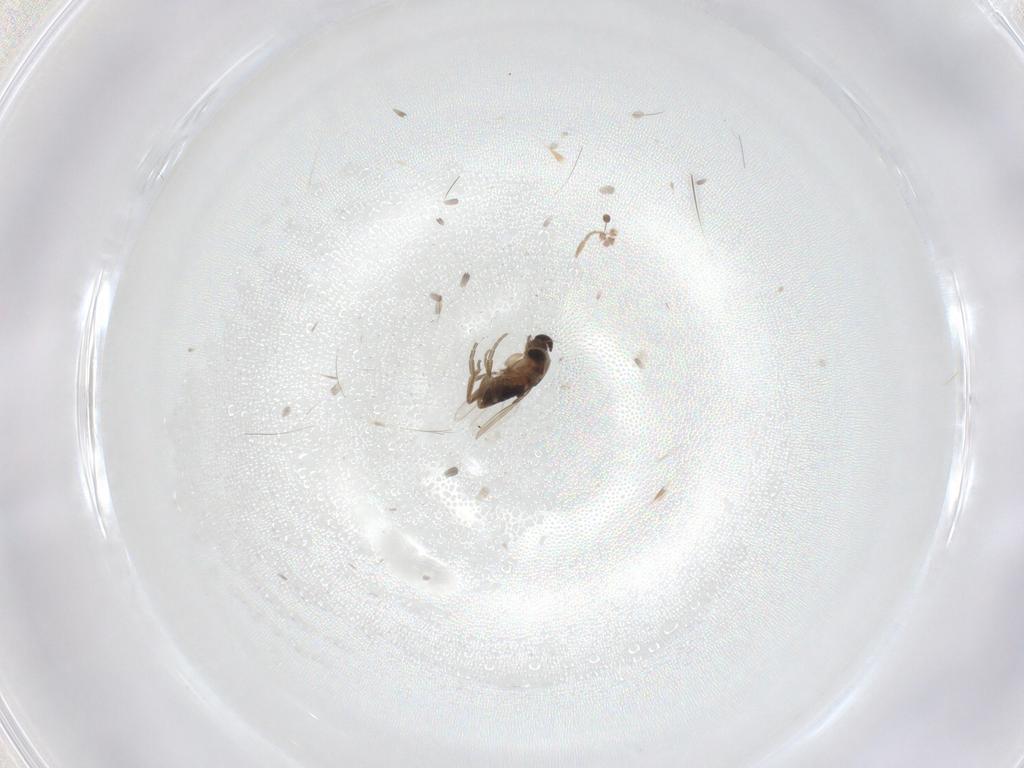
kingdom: Animalia
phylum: Arthropoda
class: Insecta
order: Diptera
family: Phoridae
